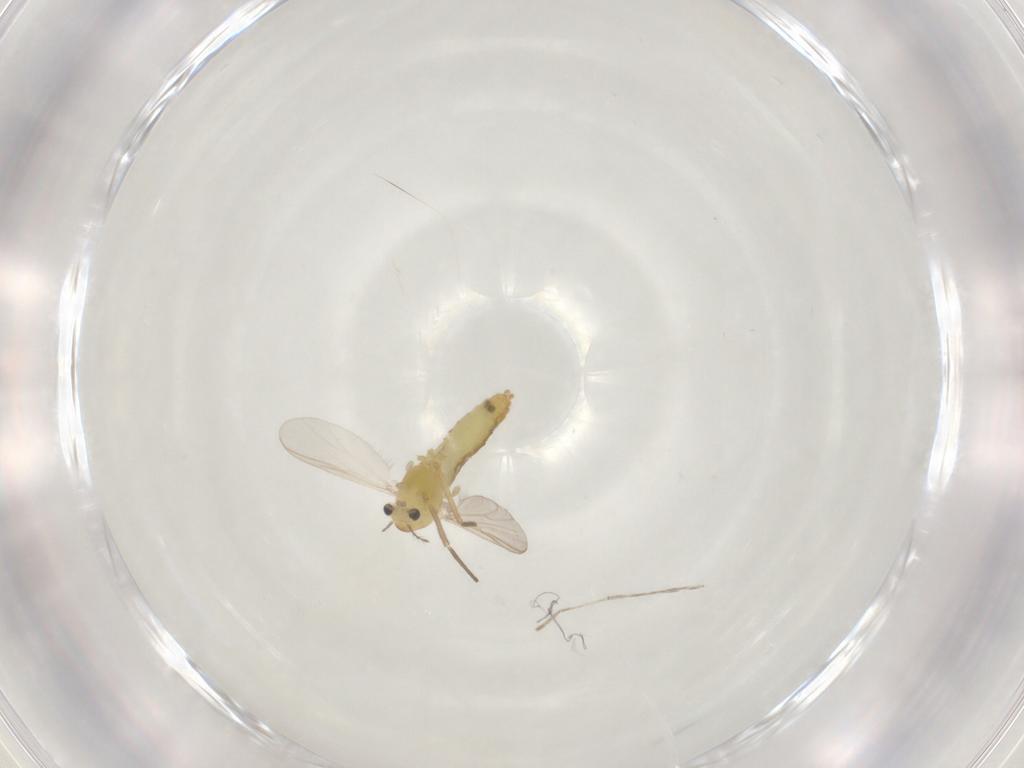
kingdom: Animalia
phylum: Arthropoda
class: Insecta
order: Diptera
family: Chironomidae
